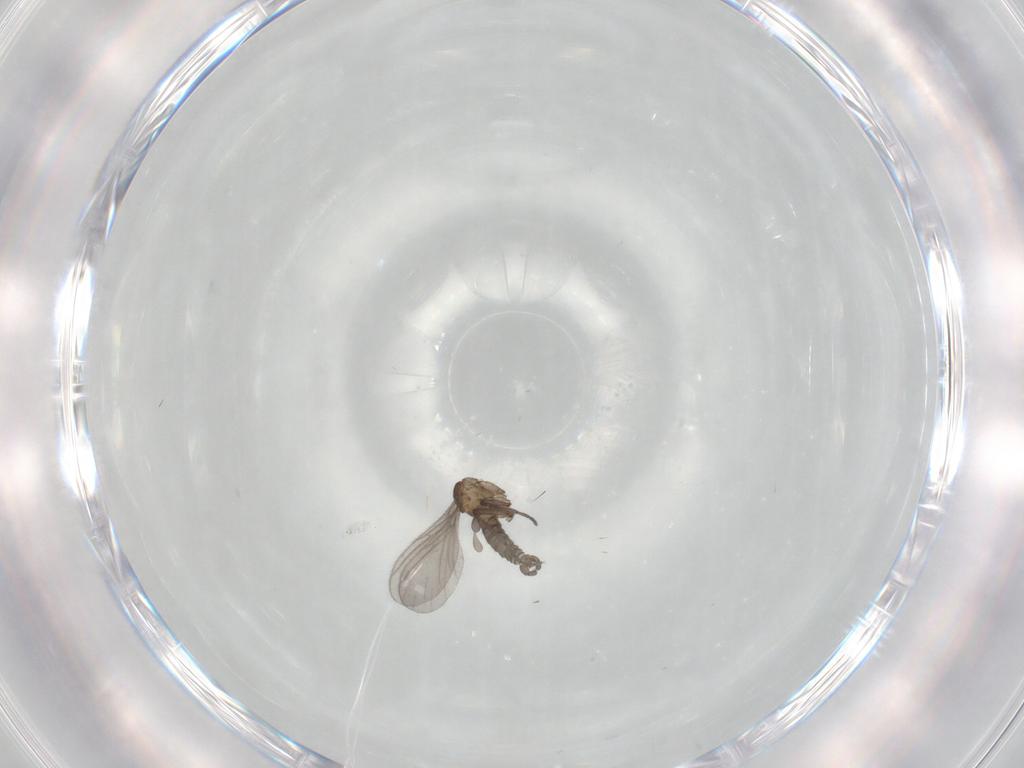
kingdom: Animalia
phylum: Arthropoda
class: Insecta
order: Diptera
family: Sciaridae
